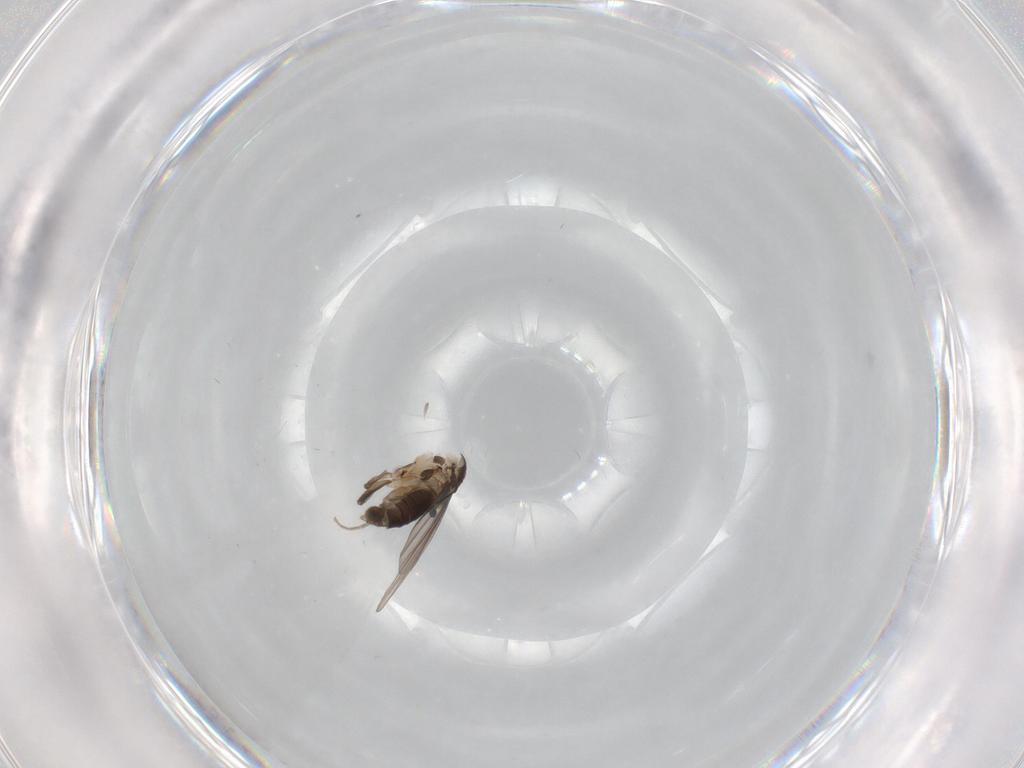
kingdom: Animalia
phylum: Arthropoda
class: Insecta
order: Diptera
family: Phoridae
